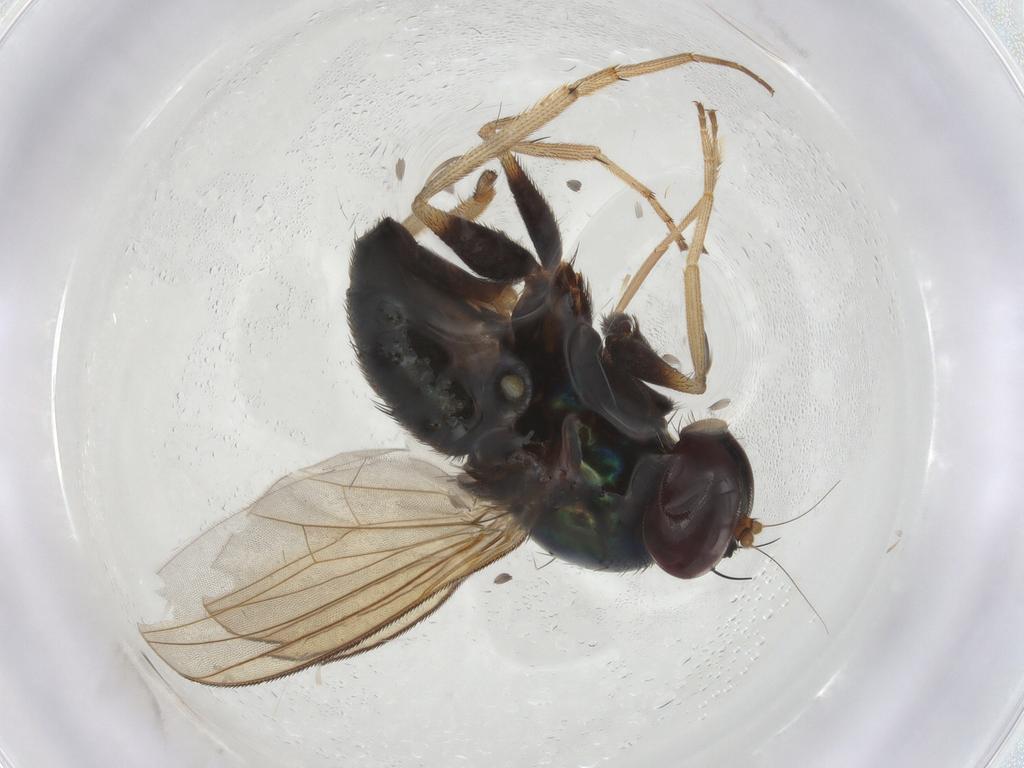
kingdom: Animalia
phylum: Arthropoda
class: Insecta
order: Diptera
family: Dolichopodidae
